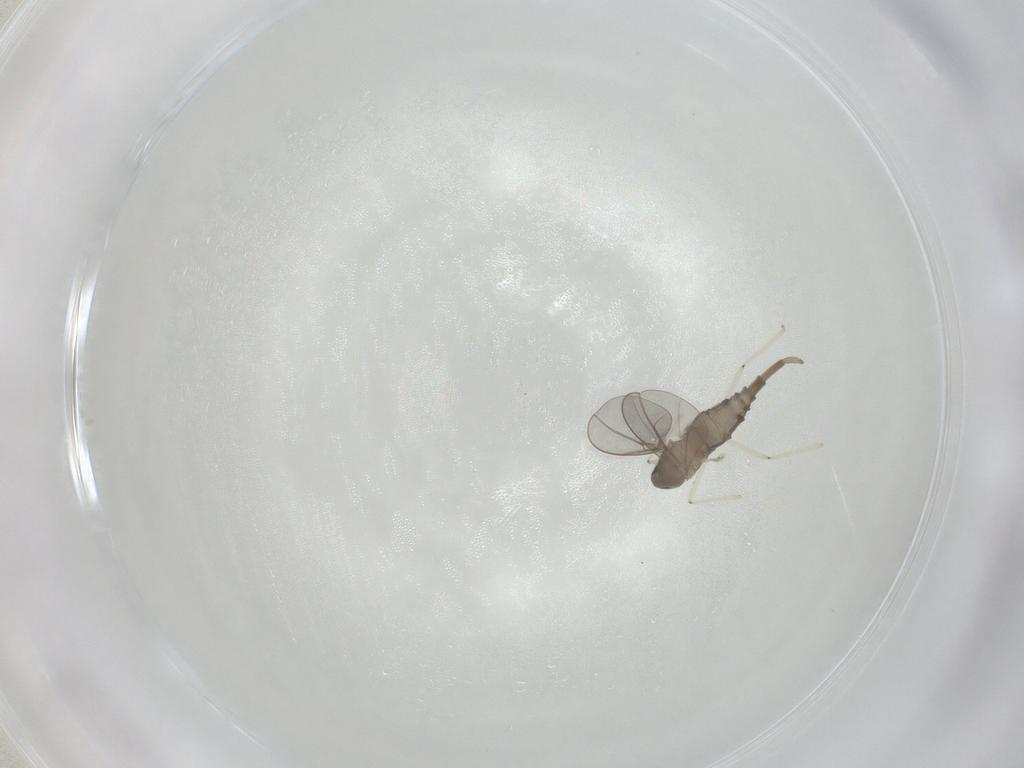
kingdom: Animalia
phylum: Arthropoda
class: Insecta
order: Diptera
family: Cecidomyiidae
